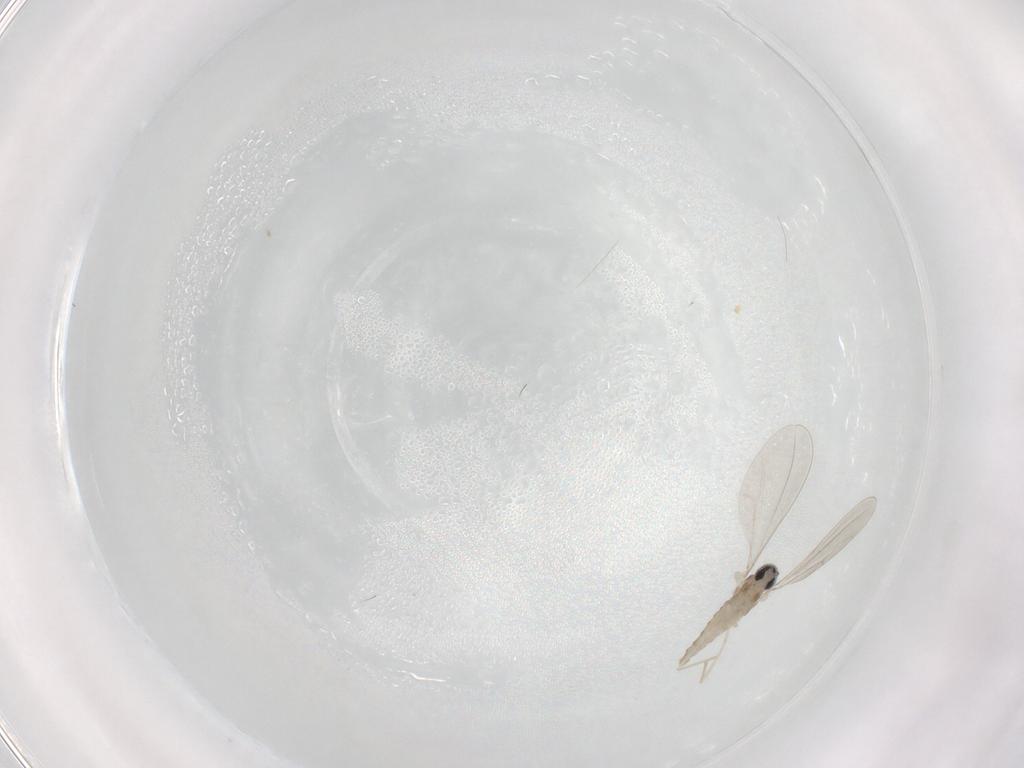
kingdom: Animalia
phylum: Arthropoda
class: Insecta
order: Diptera
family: Cecidomyiidae
